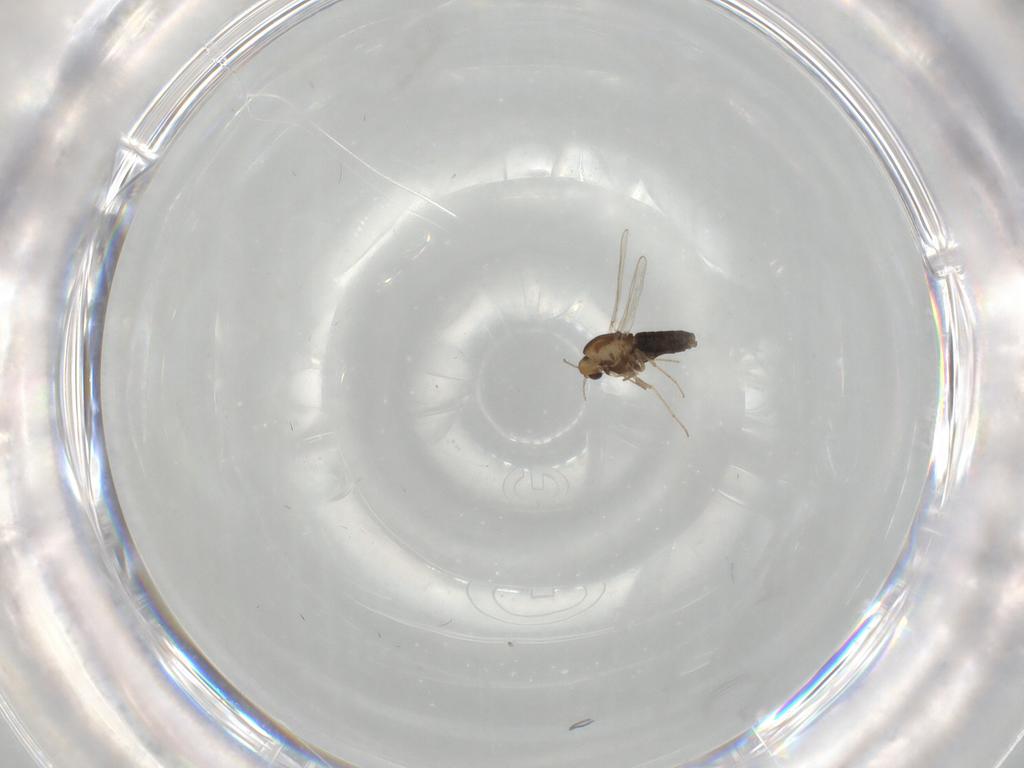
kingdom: Animalia
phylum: Arthropoda
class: Insecta
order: Diptera
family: Chironomidae
